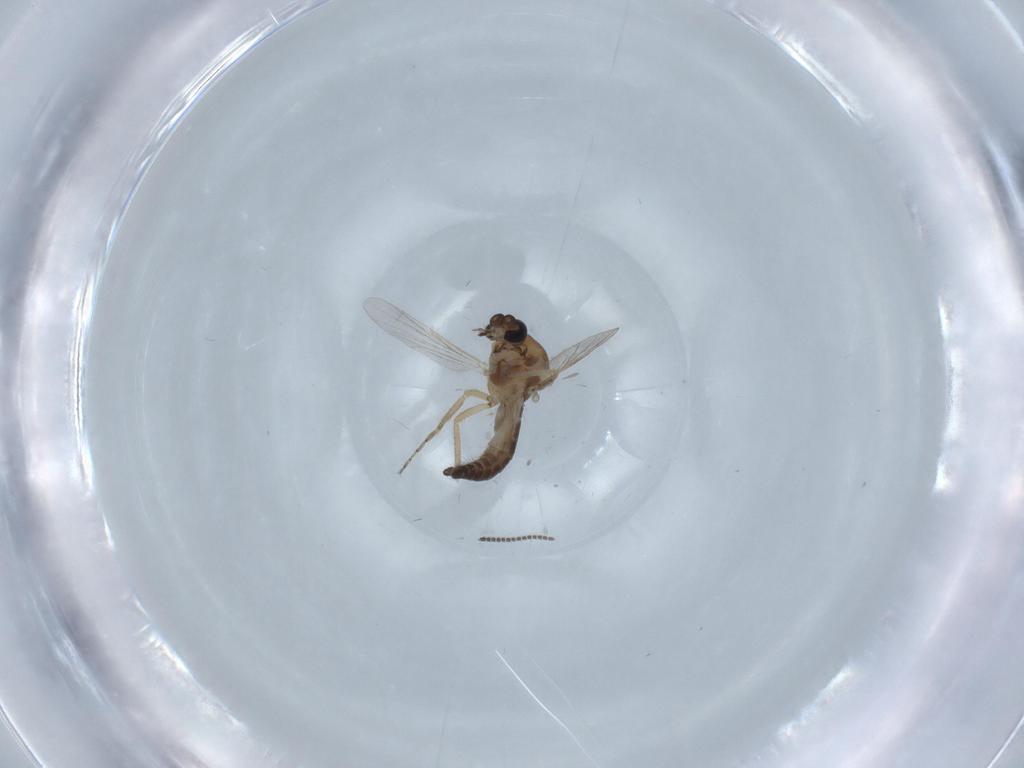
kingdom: Animalia
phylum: Arthropoda
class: Insecta
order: Diptera
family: Ceratopogonidae
